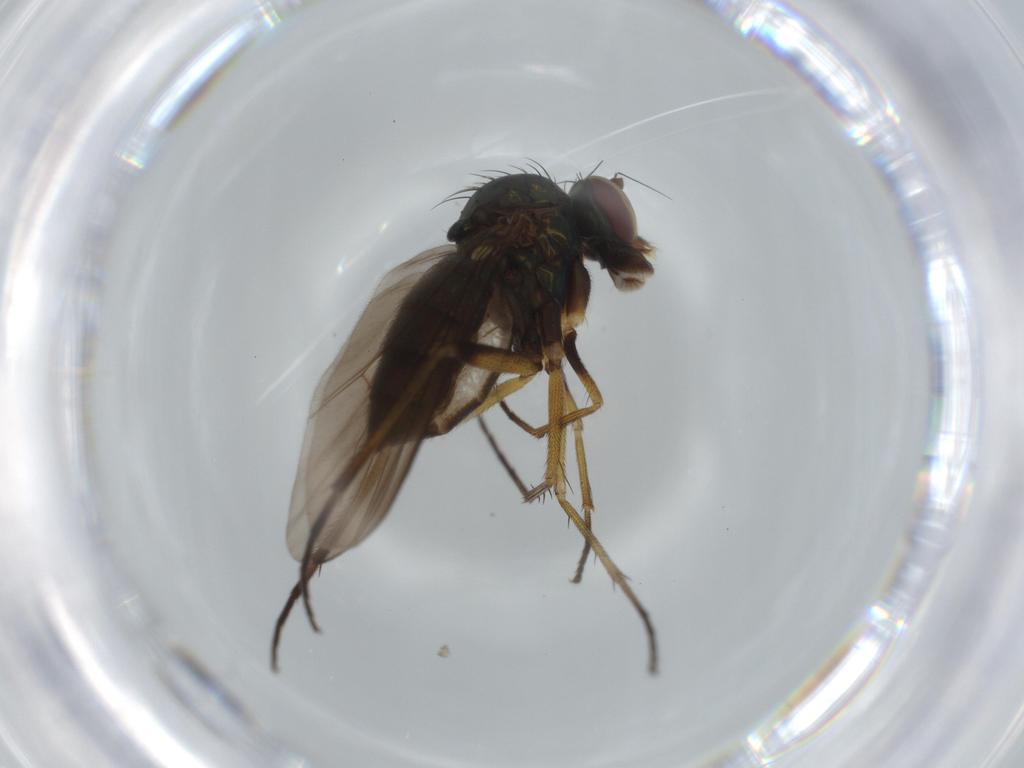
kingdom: Animalia
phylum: Arthropoda
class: Insecta
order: Diptera
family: Dolichopodidae
